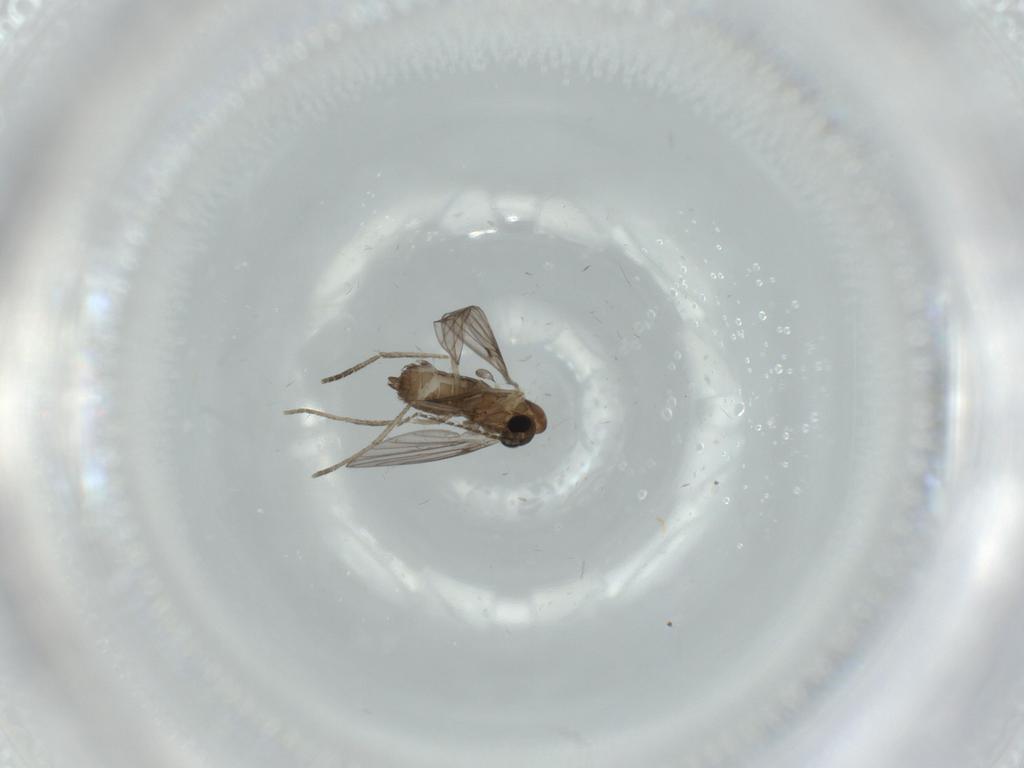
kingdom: Animalia
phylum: Arthropoda
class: Insecta
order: Diptera
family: Psychodidae
